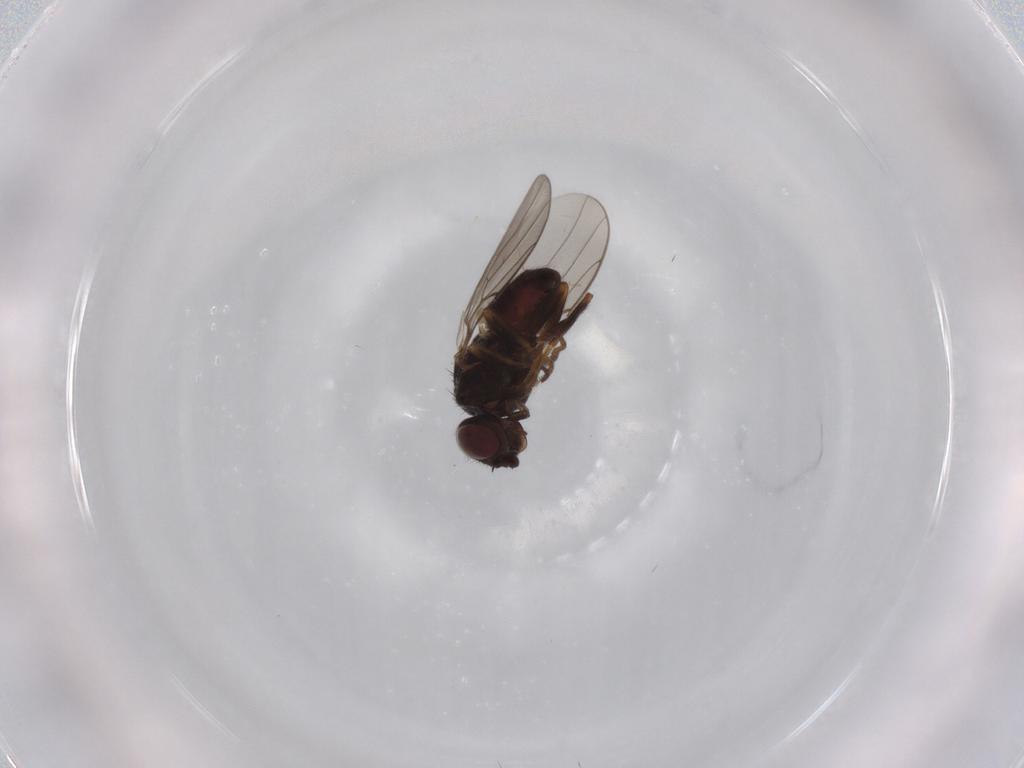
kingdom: Animalia
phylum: Arthropoda
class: Insecta
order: Diptera
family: Chloropidae
